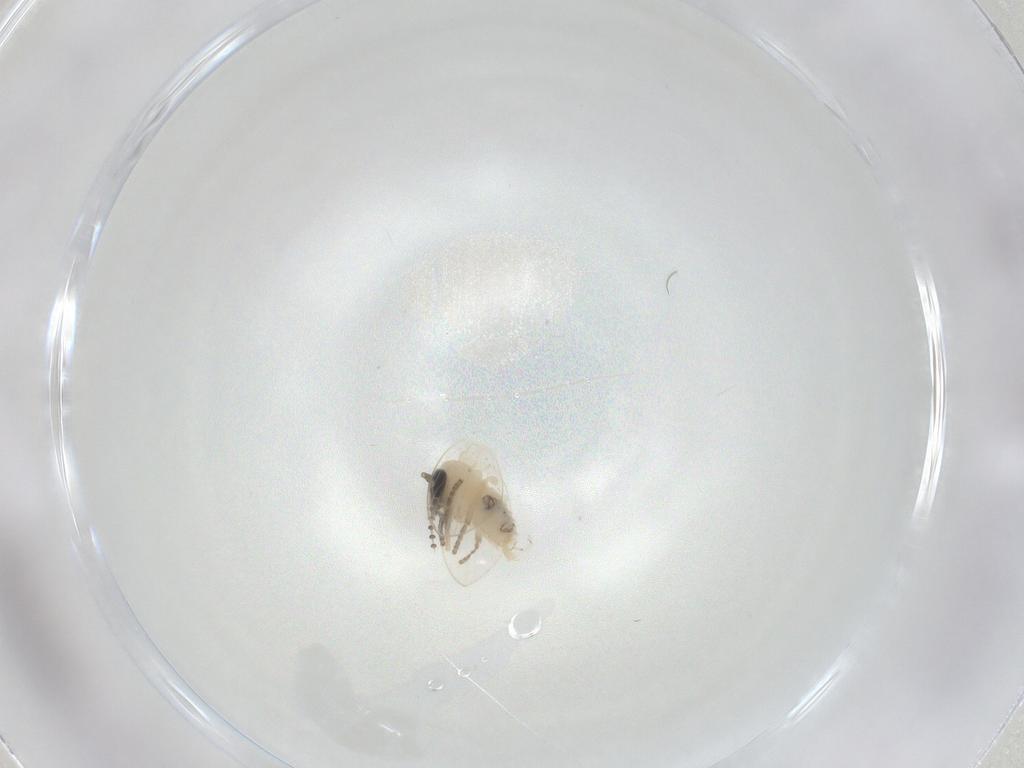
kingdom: Animalia
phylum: Arthropoda
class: Insecta
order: Diptera
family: Psychodidae
